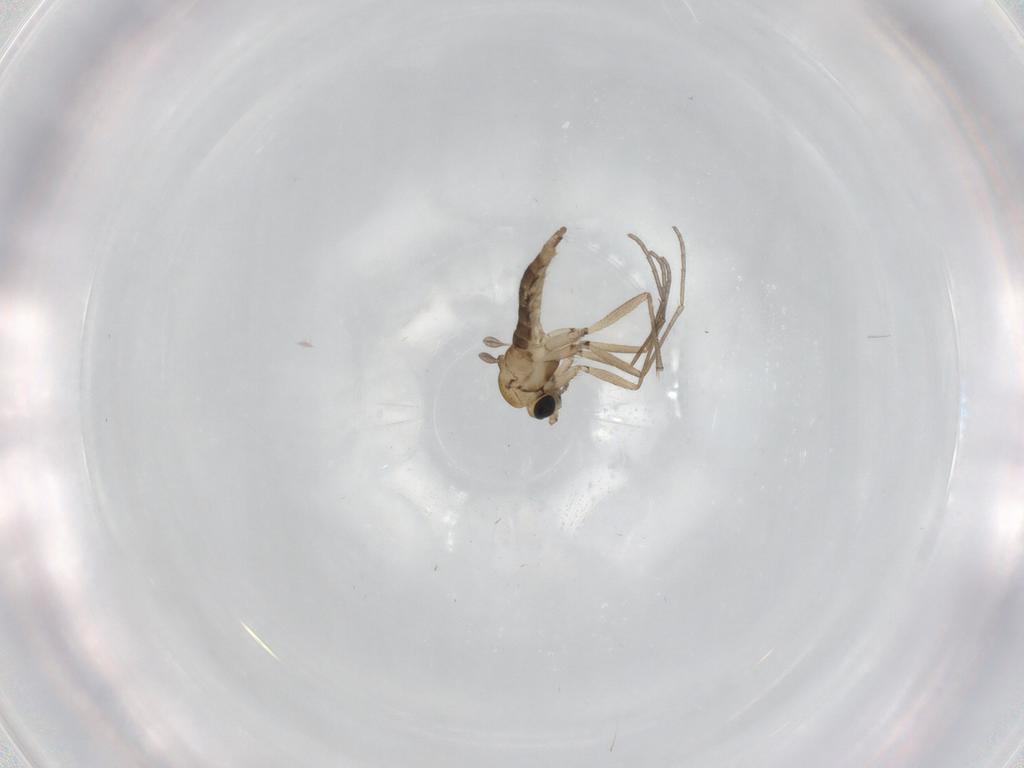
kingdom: Animalia
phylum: Arthropoda
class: Insecta
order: Diptera
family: Sciaridae
